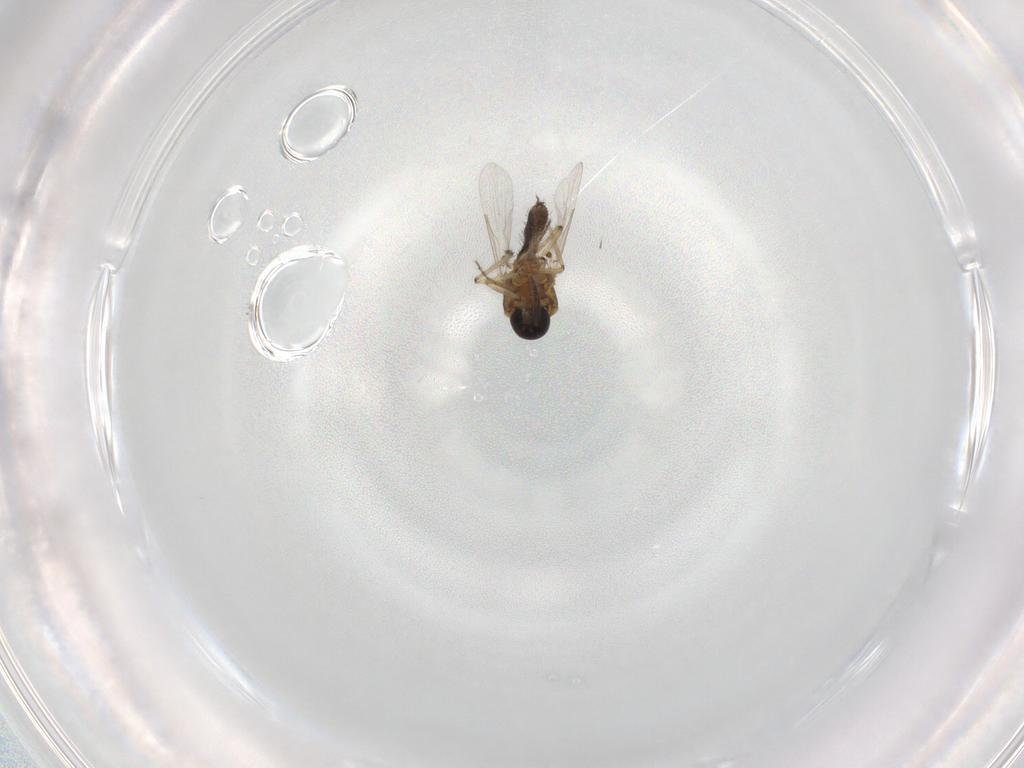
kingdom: Animalia
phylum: Arthropoda
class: Insecta
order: Diptera
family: Ceratopogonidae
